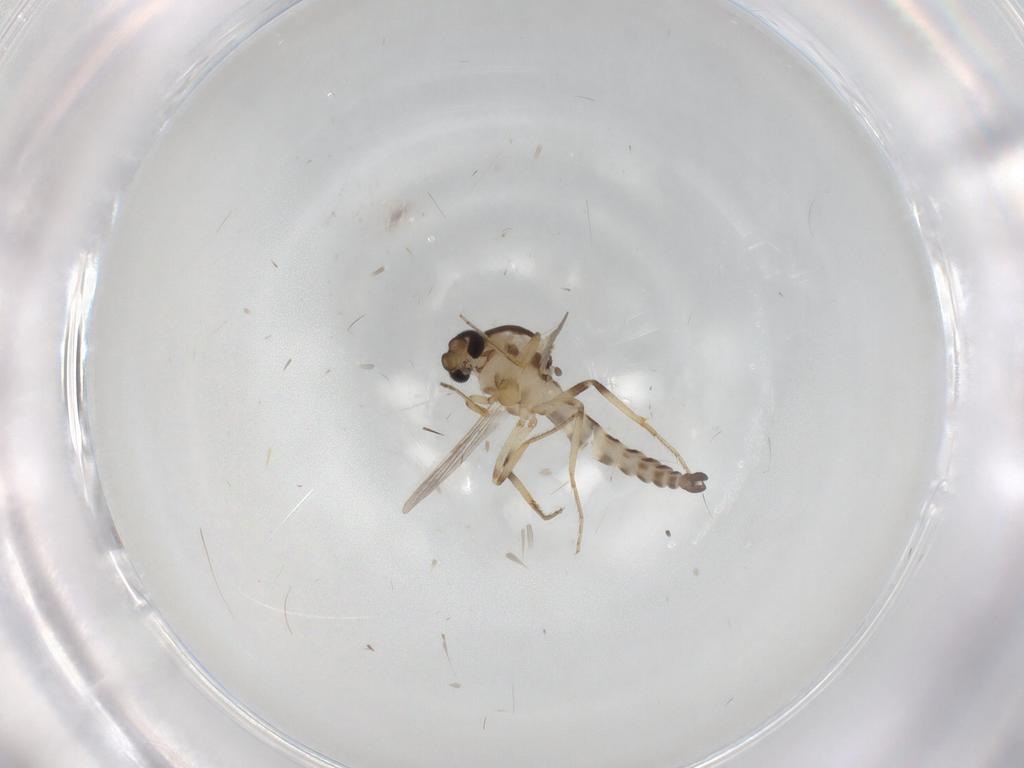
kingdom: Animalia
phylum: Arthropoda
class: Insecta
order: Diptera
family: Ceratopogonidae
